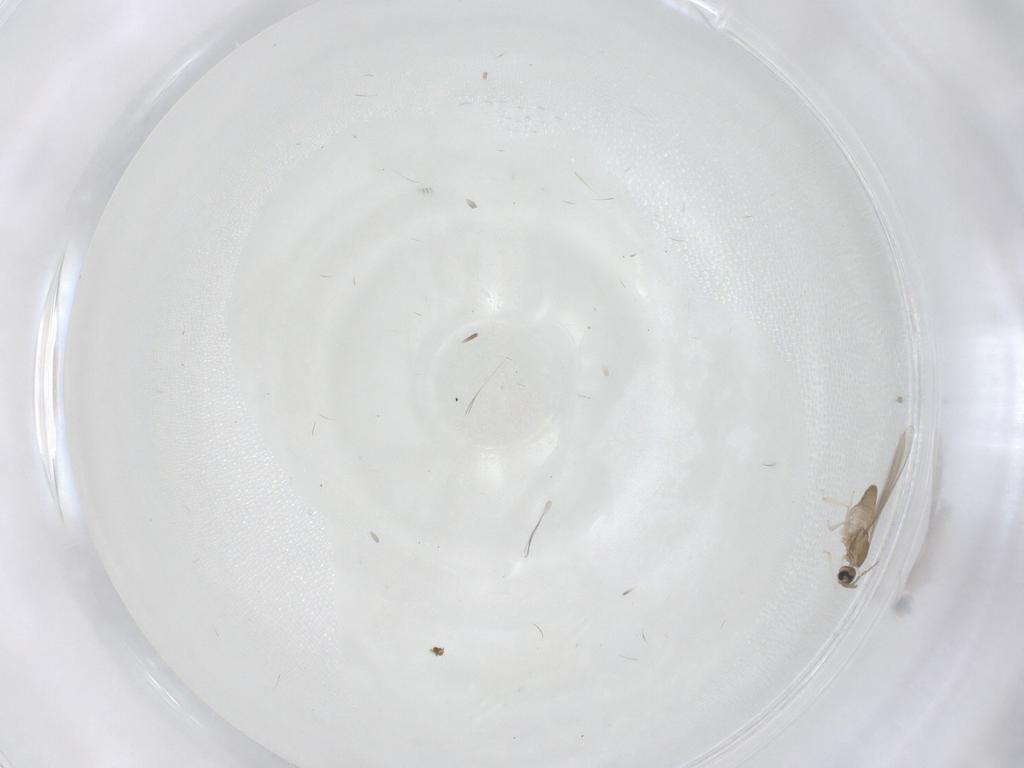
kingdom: Animalia
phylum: Arthropoda
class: Insecta
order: Diptera
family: Cecidomyiidae
